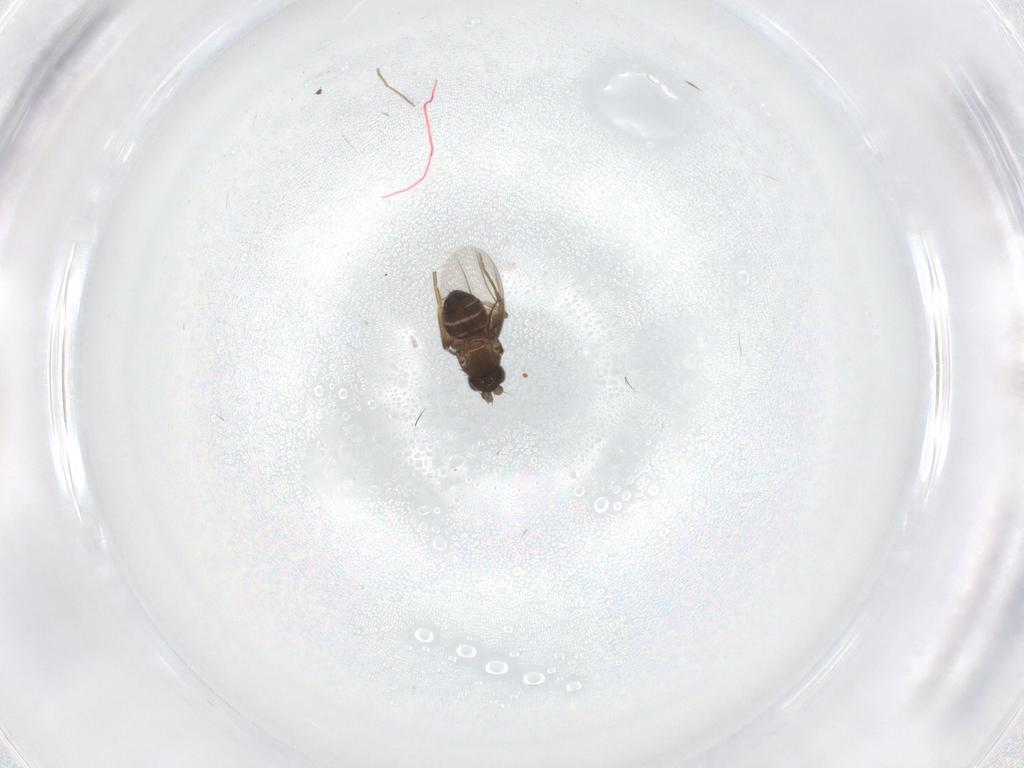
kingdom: Animalia
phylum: Arthropoda
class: Insecta
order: Diptera
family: Phoridae
